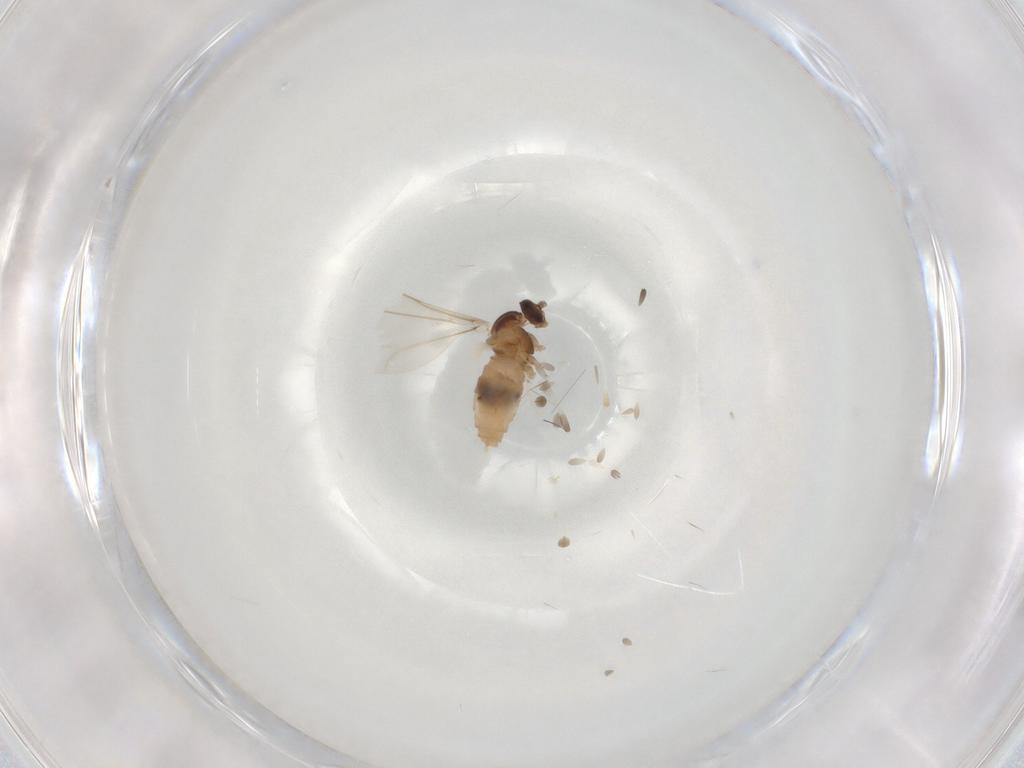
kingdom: Animalia
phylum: Arthropoda
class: Insecta
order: Diptera
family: Cecidomyiidae
